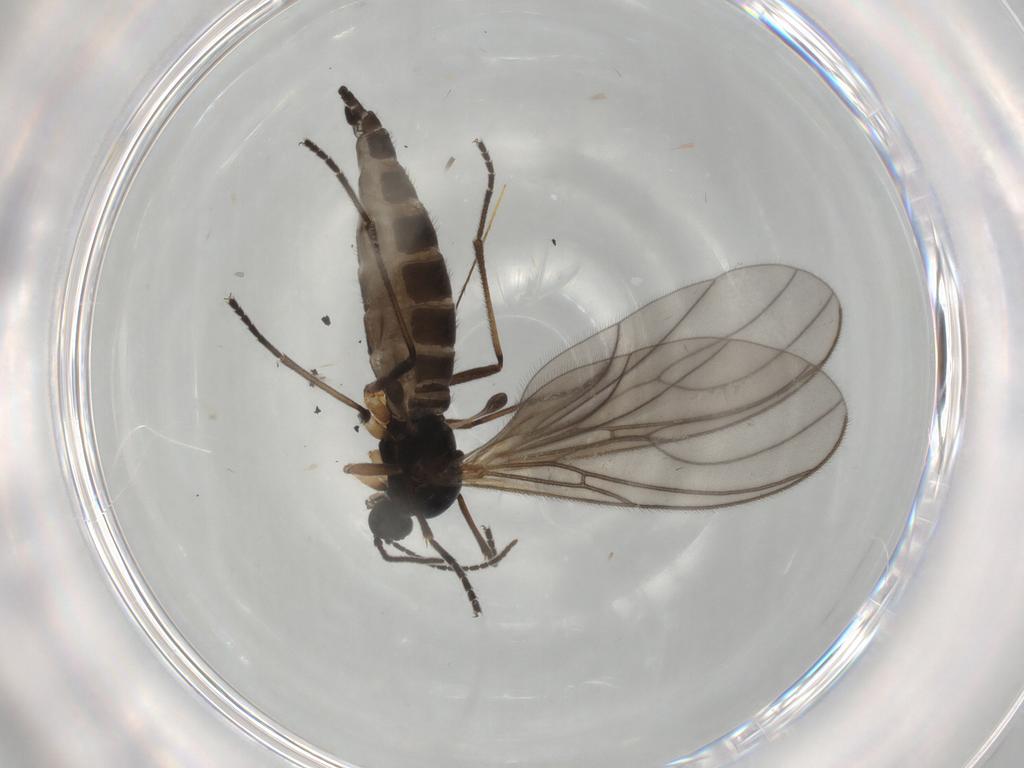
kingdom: Animalia
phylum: Arthropoda
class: Insecta
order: Diptera
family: Sciaridae
